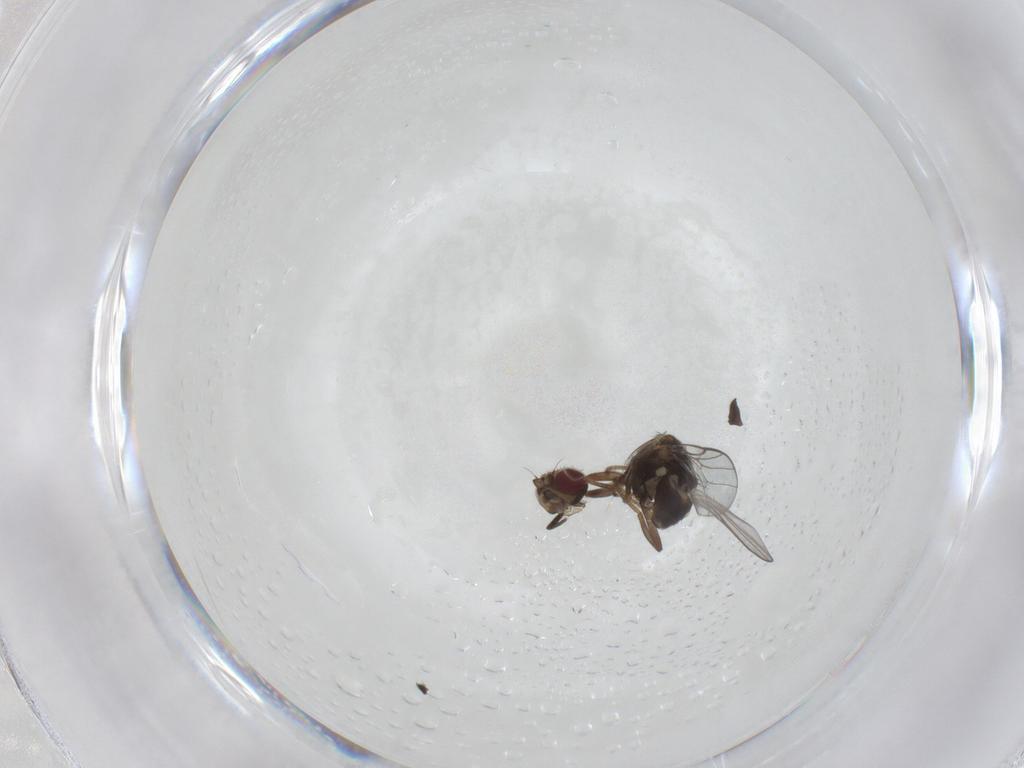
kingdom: Animalia
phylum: Arthropoda
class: Insecta
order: Diptera
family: Chloropidae
